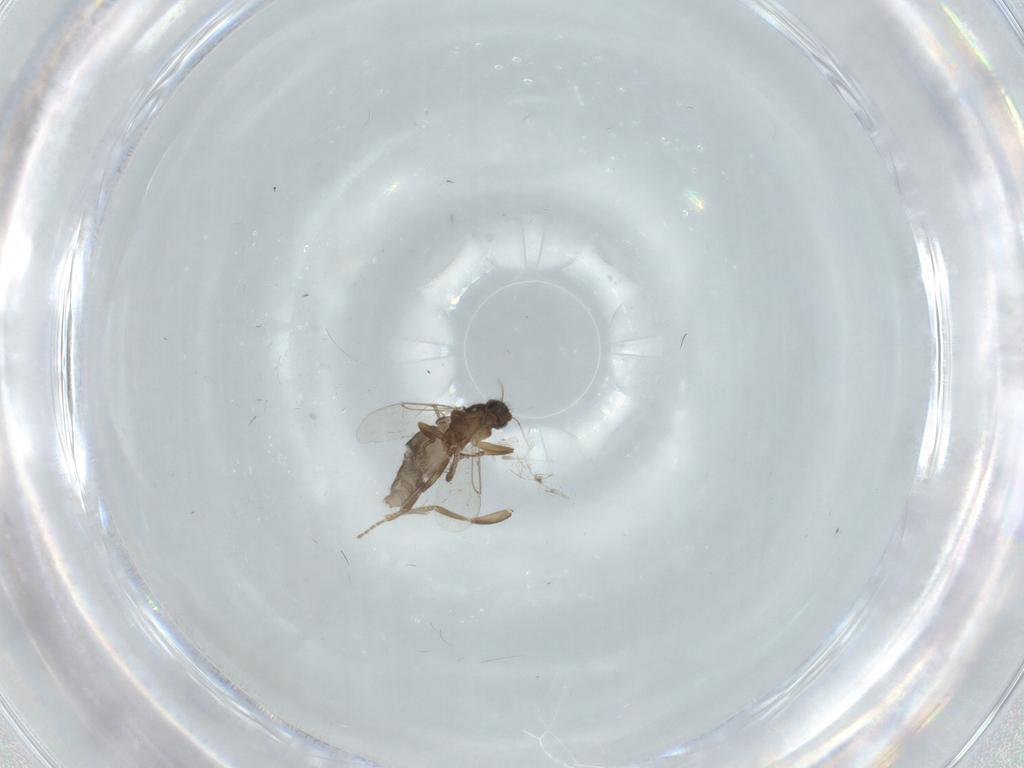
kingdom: Animalia
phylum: Arthropoda
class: Insecta
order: Diptera
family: Phoridae
